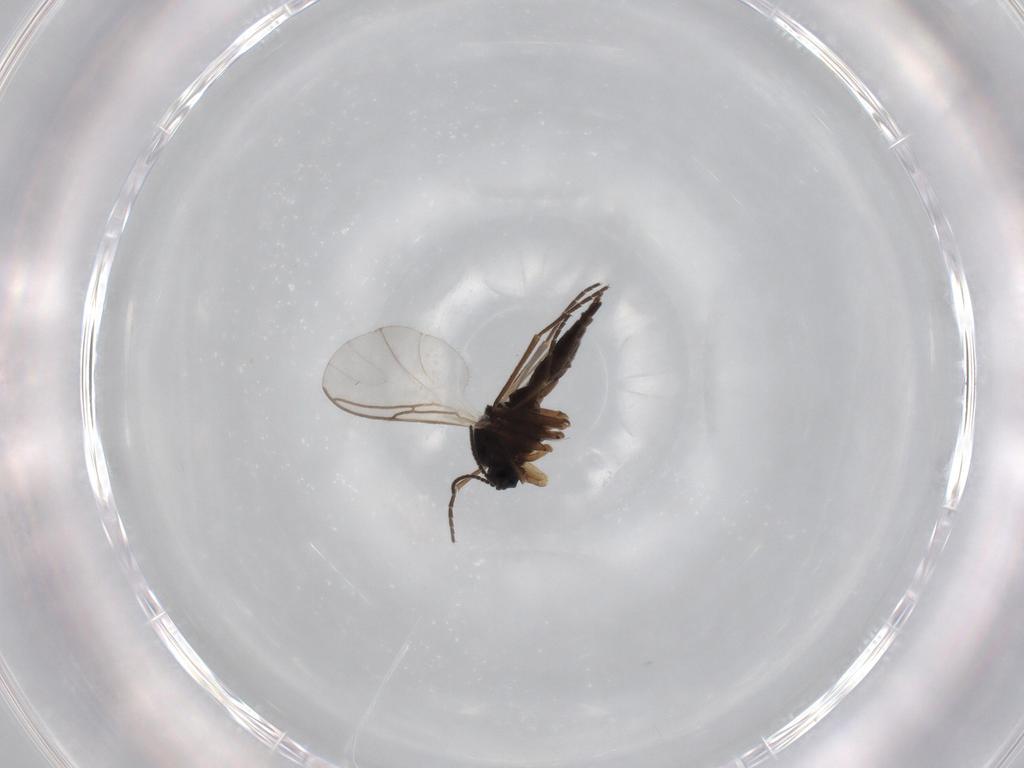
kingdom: Animalia
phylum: Arthropoda
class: Insecta
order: Diptera
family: Sciaridae
